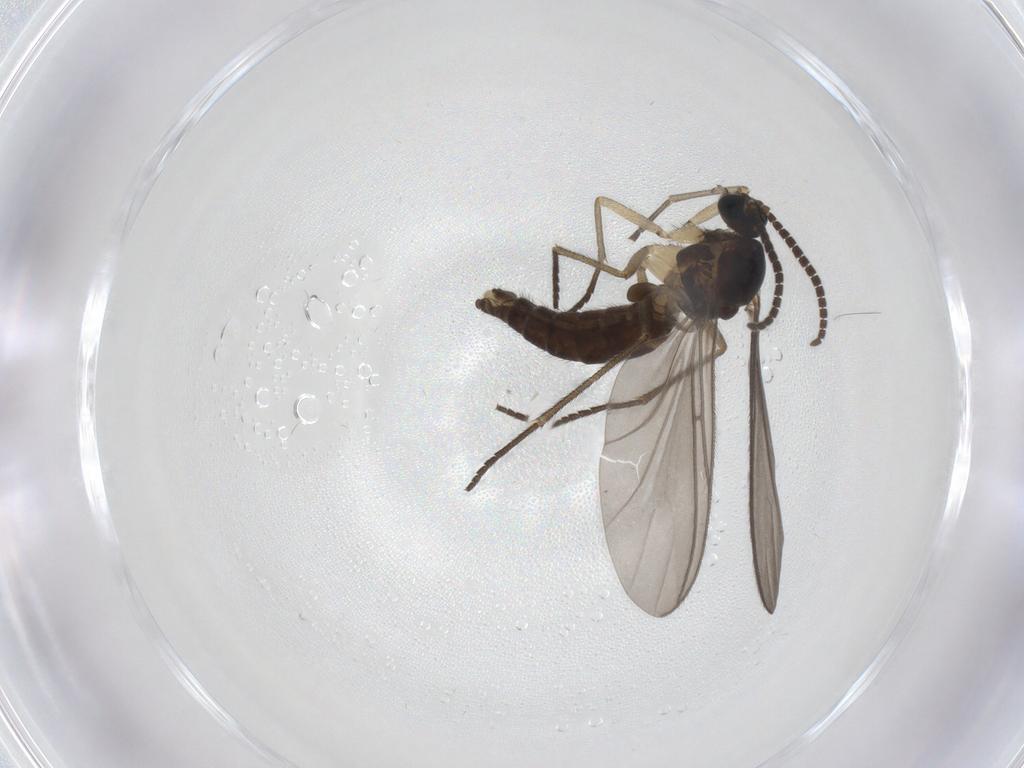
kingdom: Animalia
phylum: Arthropoda
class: Insecta
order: Diptera
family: Sciaridae
